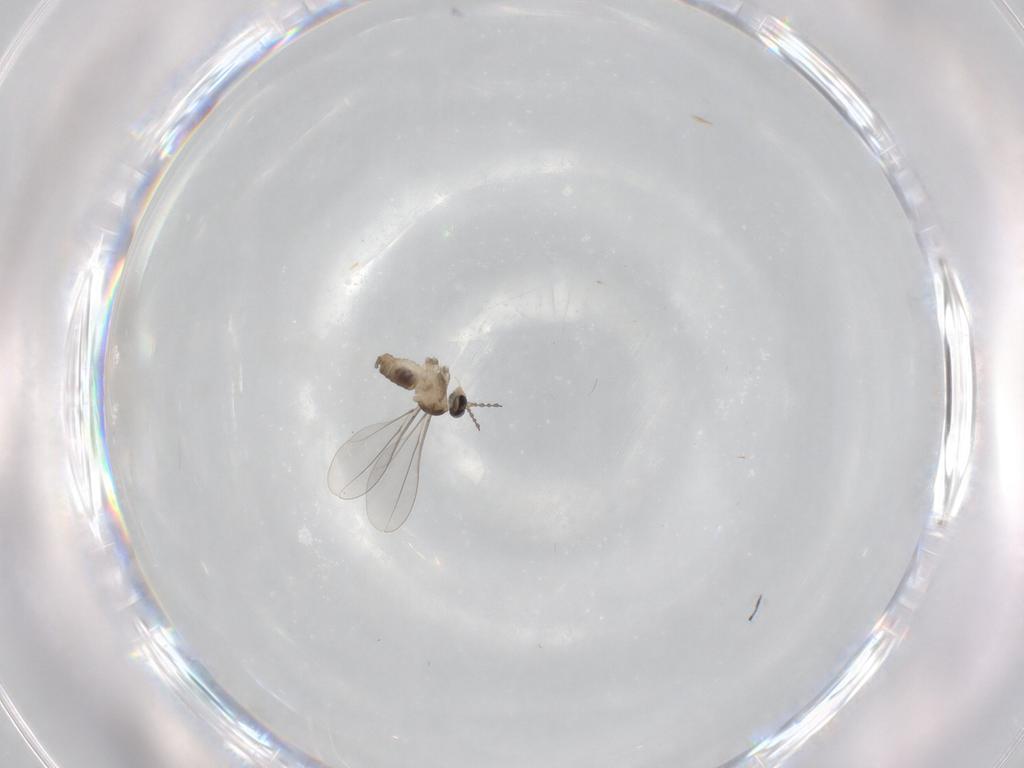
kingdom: Animalia
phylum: Arthropoda
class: Insecta
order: Diptera
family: Cecidomyiidae
